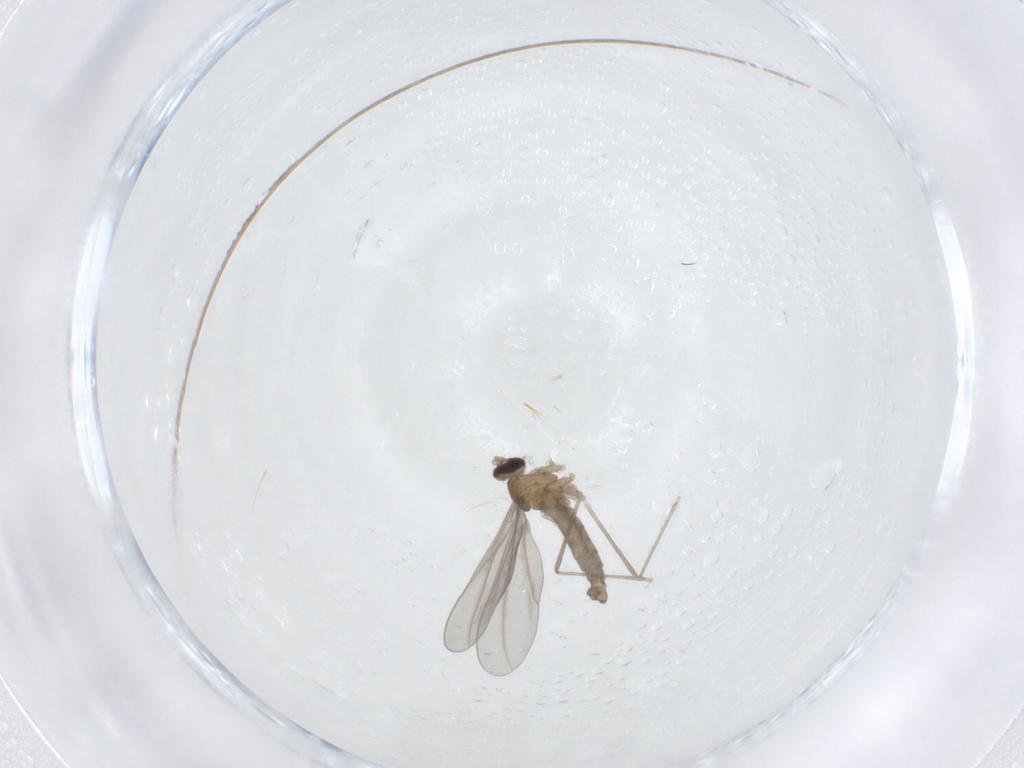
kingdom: Animalia
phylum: Arthropoda
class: Insecta
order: Diptera
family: Cecidomyiidae
